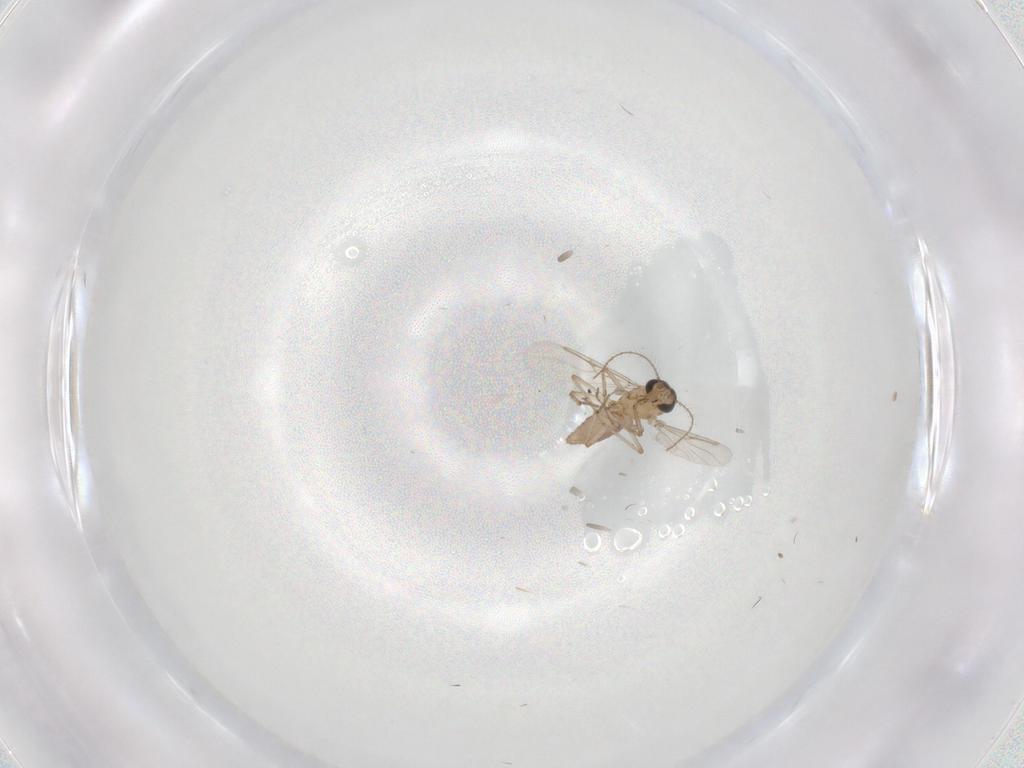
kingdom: Animalia
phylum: Arthropoda
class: Insecta
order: Diptera
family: Ceratopogonidae
